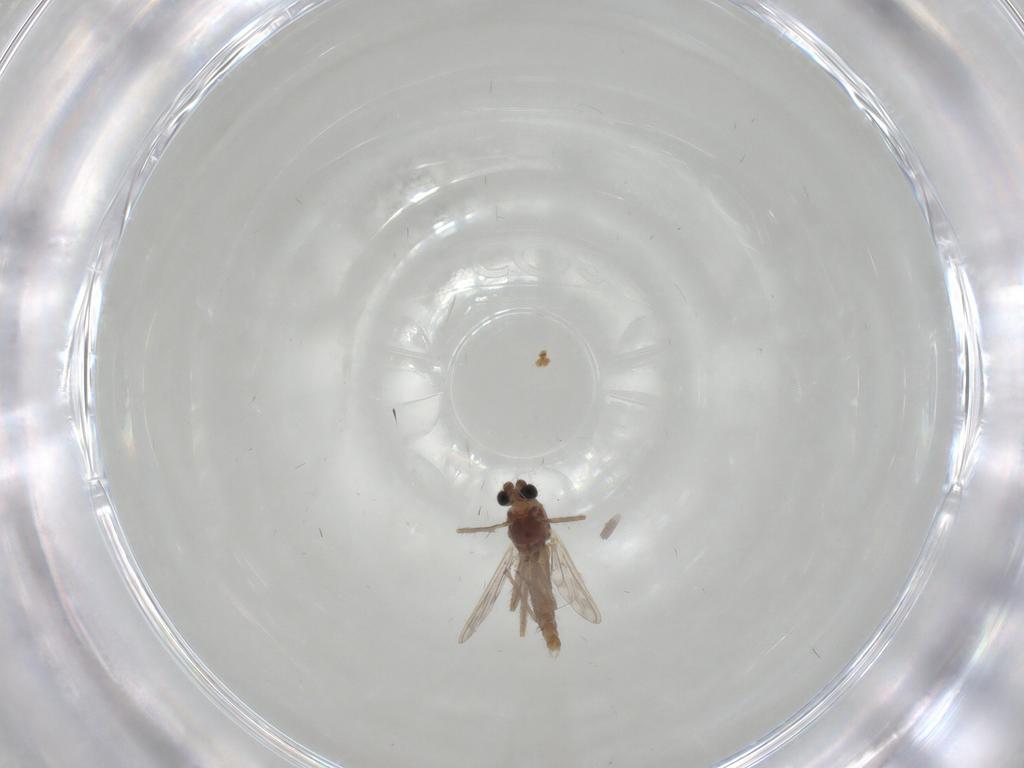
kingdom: Animalia
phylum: Arthropoda
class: Insecta
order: Diptera
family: Chironomidae
